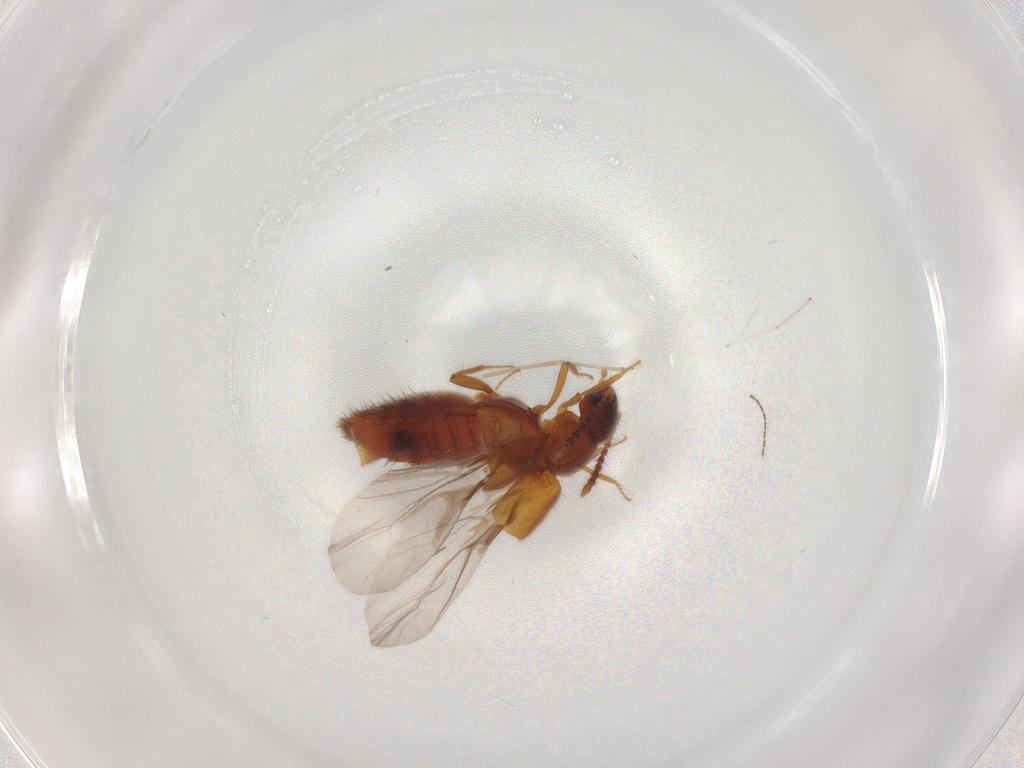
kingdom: Animalia
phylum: Arthropoda
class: Insecta
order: Coleoptera
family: Staphylinidae
